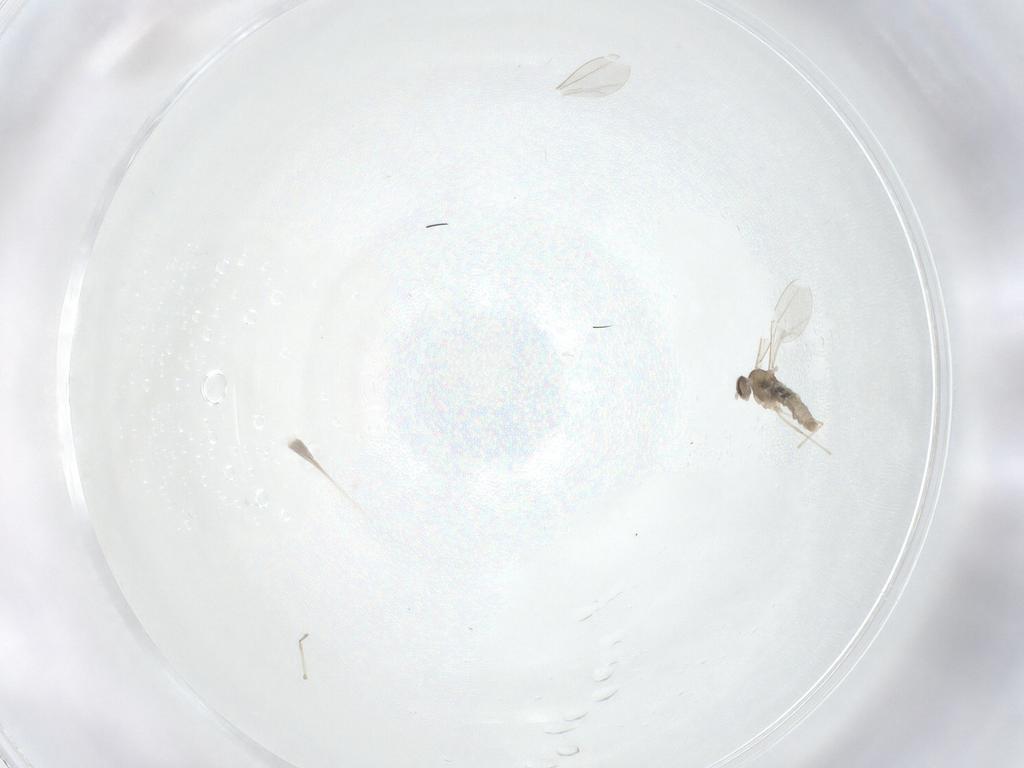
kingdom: Animalia
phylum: Arthropoda
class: Insecta
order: Diptera
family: Cecidomyiidae
